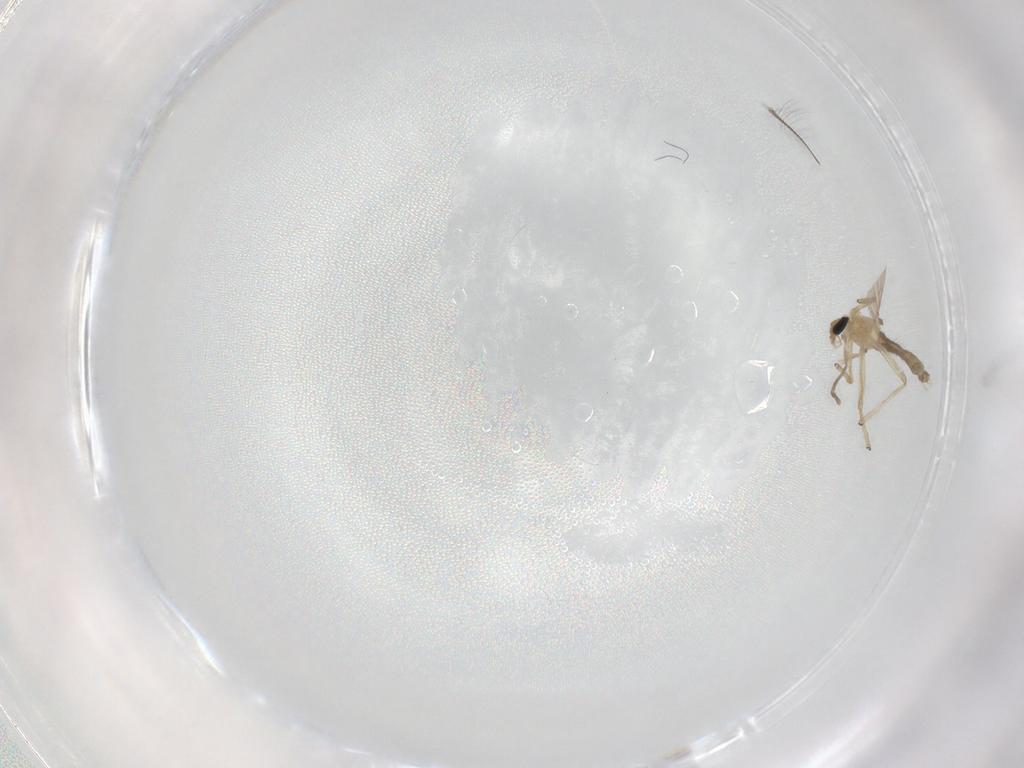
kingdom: Animalia
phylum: Arthropoda
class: Insecta
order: Diptera
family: Chironomidae
